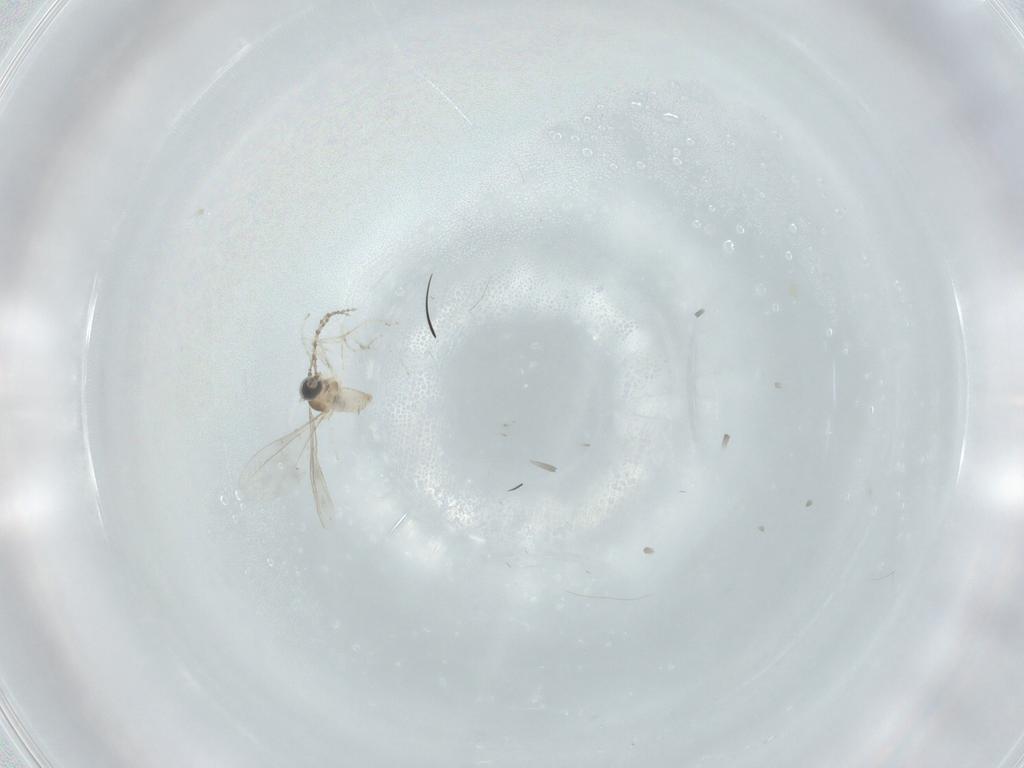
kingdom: Animalia
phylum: Arthropoda
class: Insecta
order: Diptera
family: Cecidomyiidae
